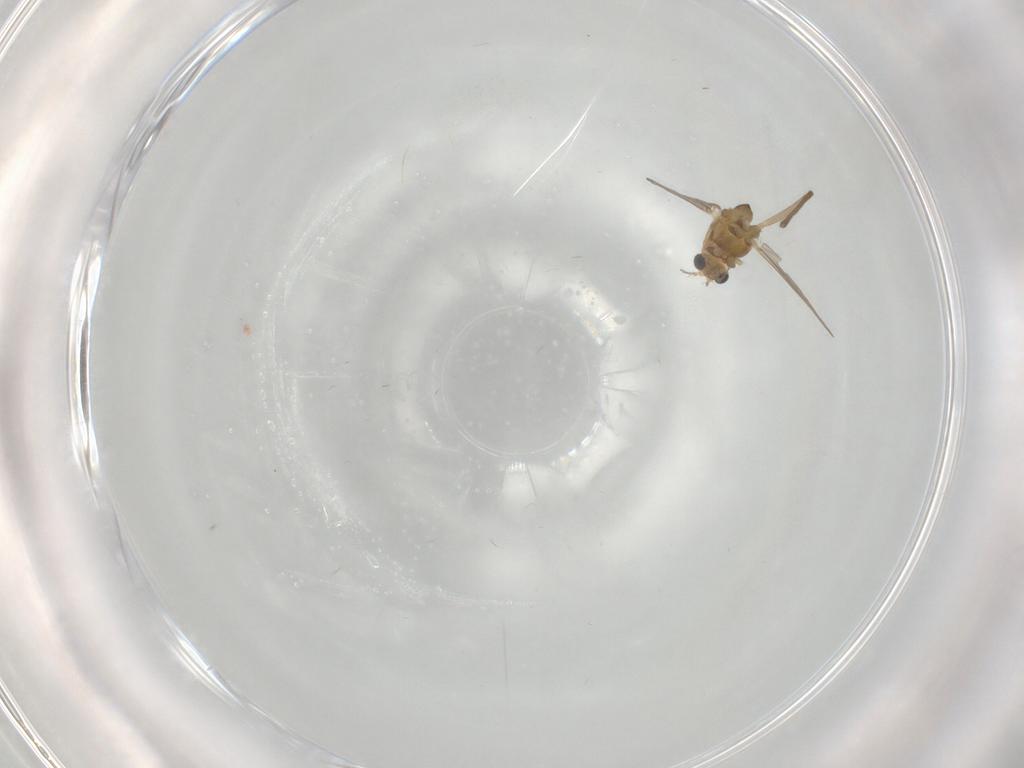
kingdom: Animalia
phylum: Arthropoda
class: Insecta
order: Diptera
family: Chironomidae
